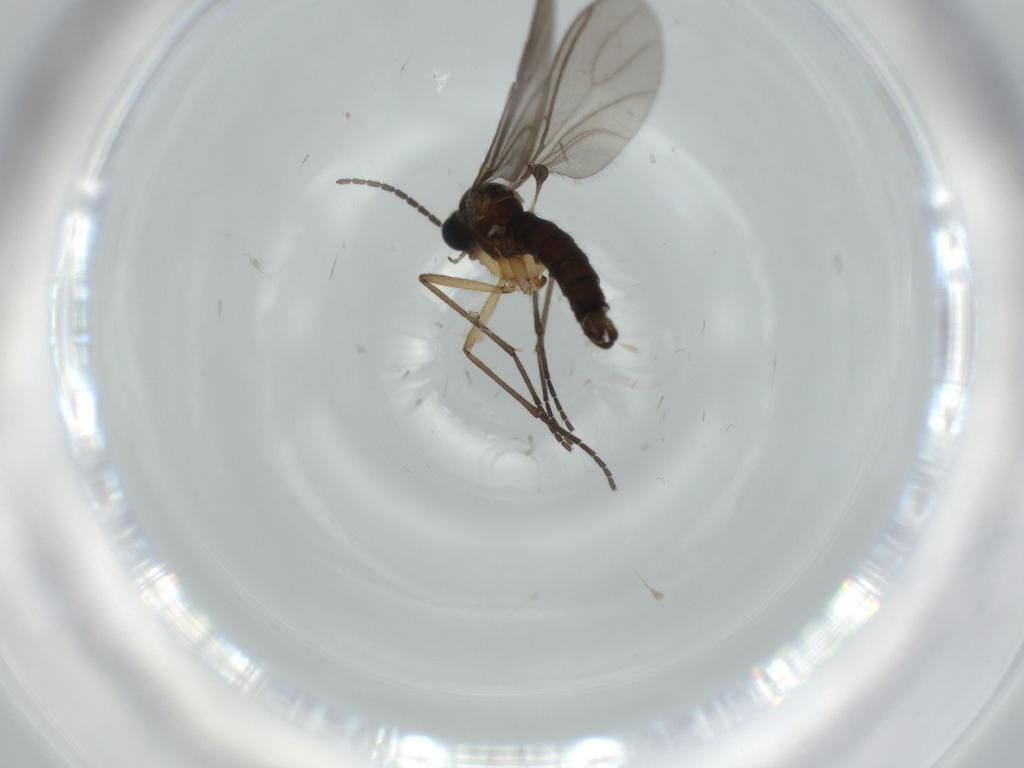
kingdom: Animalia
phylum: Arthropoda
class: Insecta
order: Diptera
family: Sciaridae
